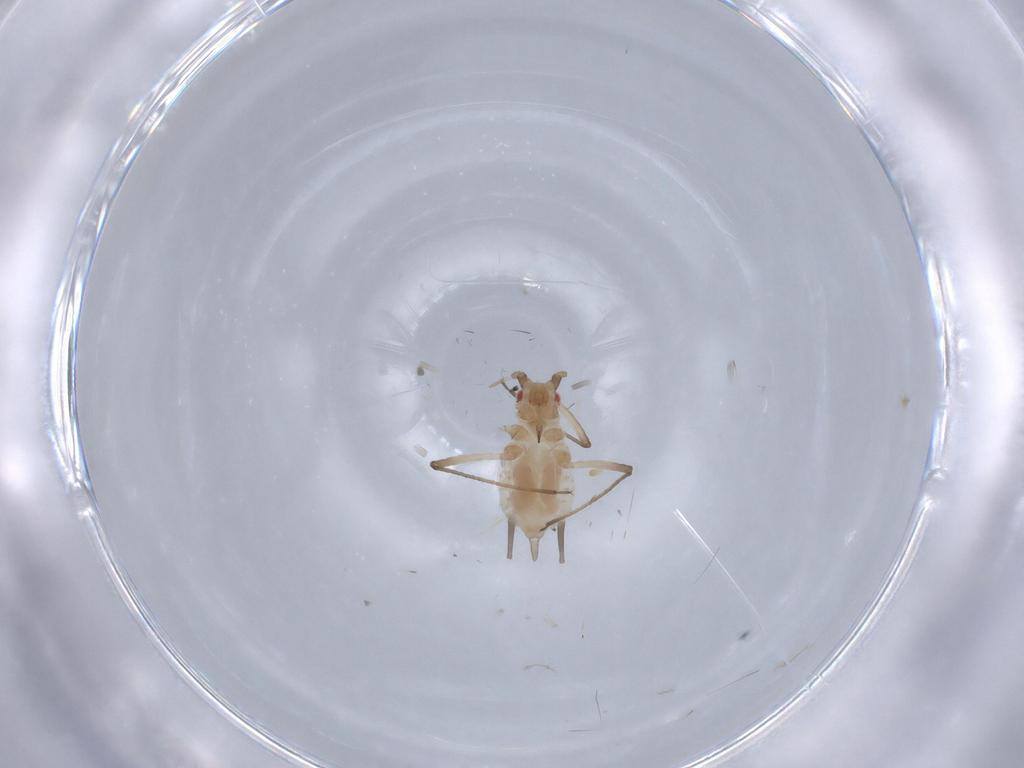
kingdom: Animalia
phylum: Arthropoda
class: Insecta
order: Hemiptera
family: Aphididae
